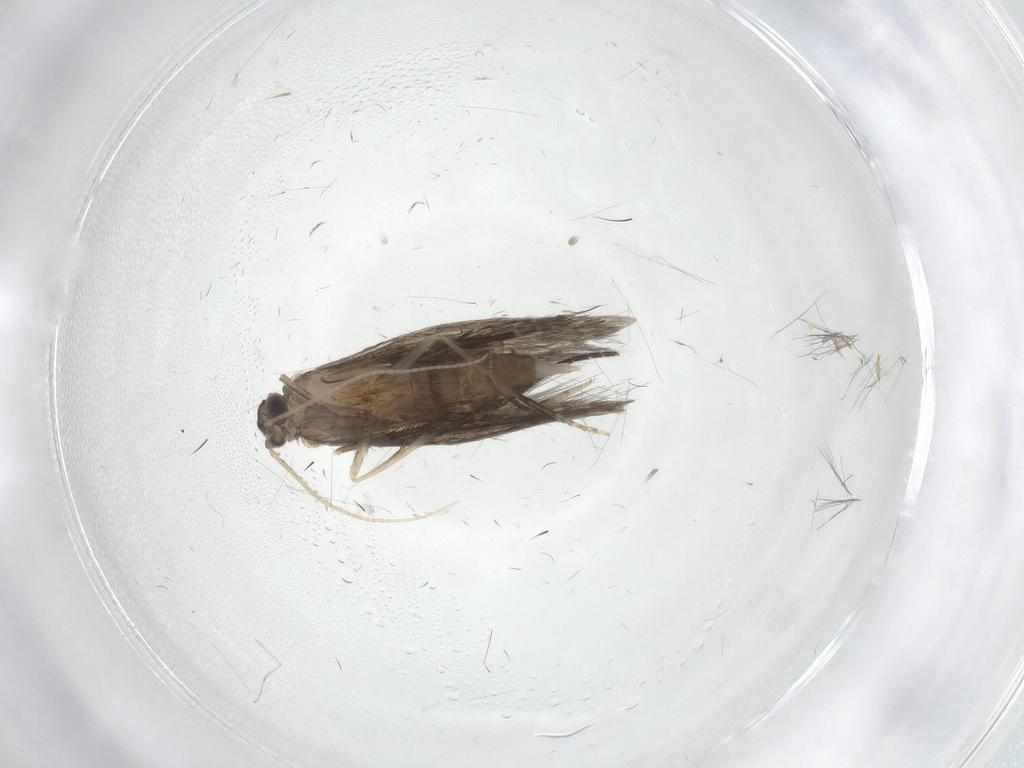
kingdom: Animalia
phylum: Arthropoda
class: Insecta
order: Trichoptera
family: Hydroptilidae
